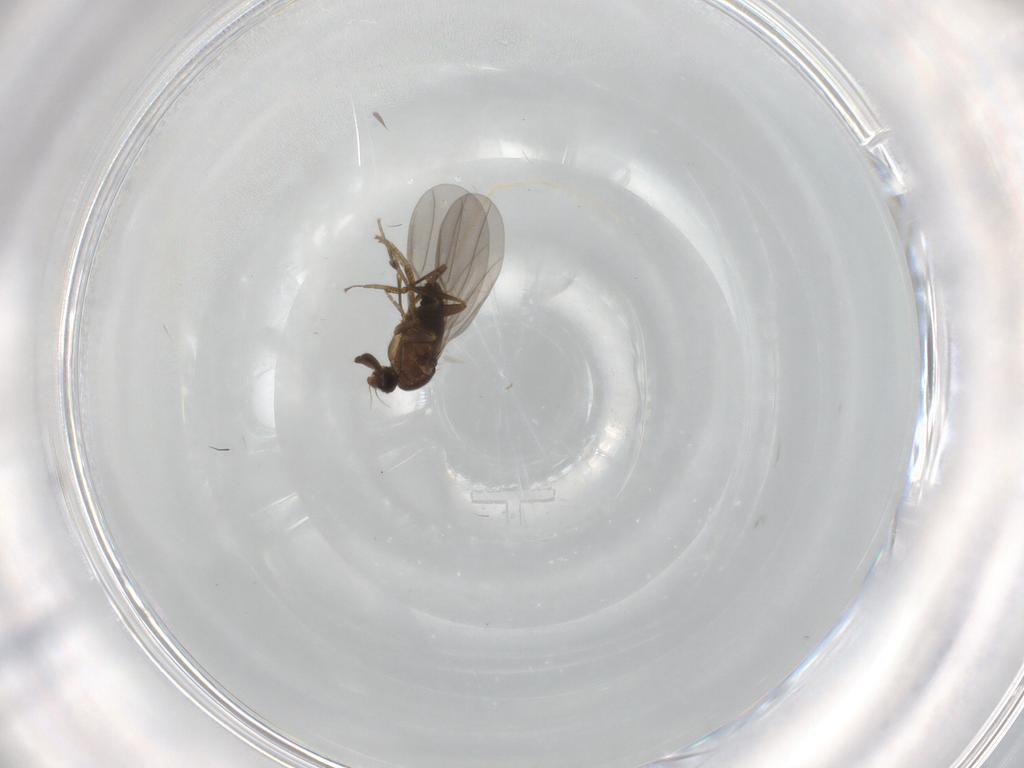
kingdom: Animalia
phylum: Arthropoda
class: Insecta
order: Diptera
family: Phoridae
